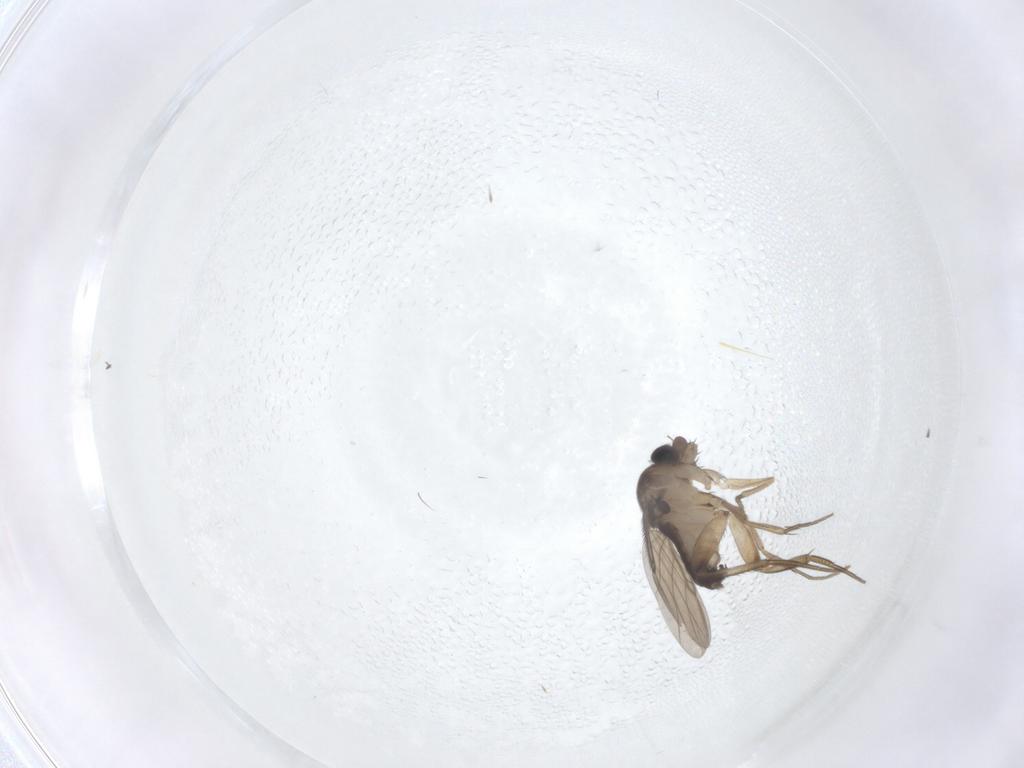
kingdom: Animalia
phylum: Arthropoda
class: Insecta
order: Diptera
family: Phoridae
